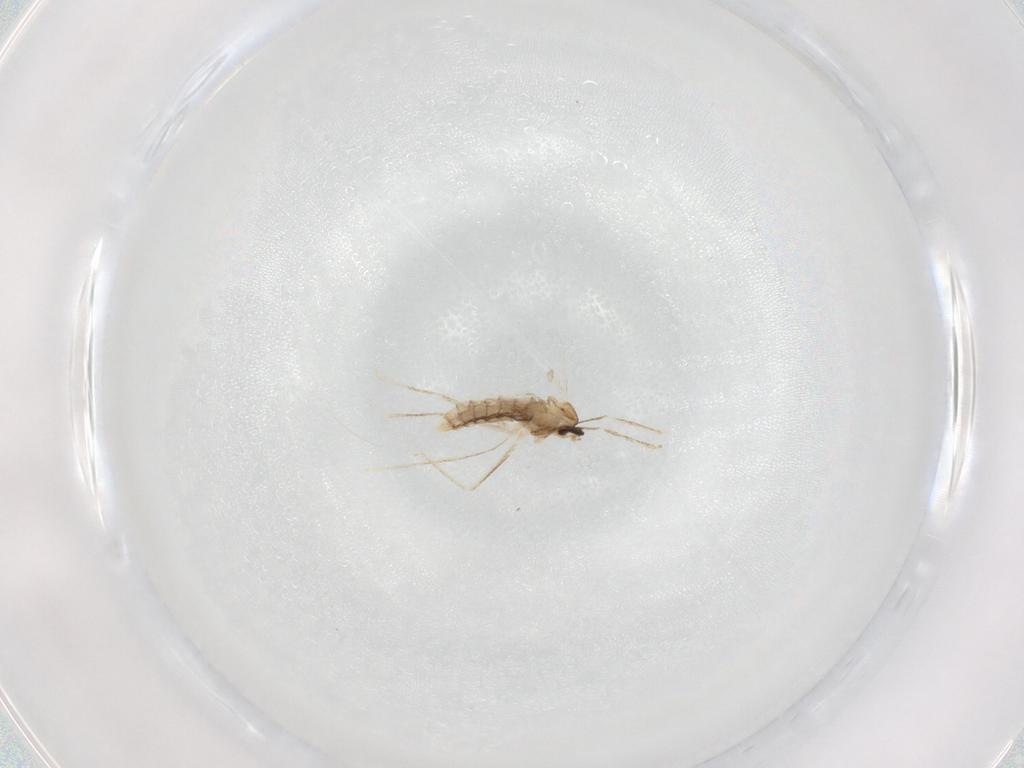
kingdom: Animalia
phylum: Arthropoda
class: Insecta
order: Diptera
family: Cecidomyiidae
